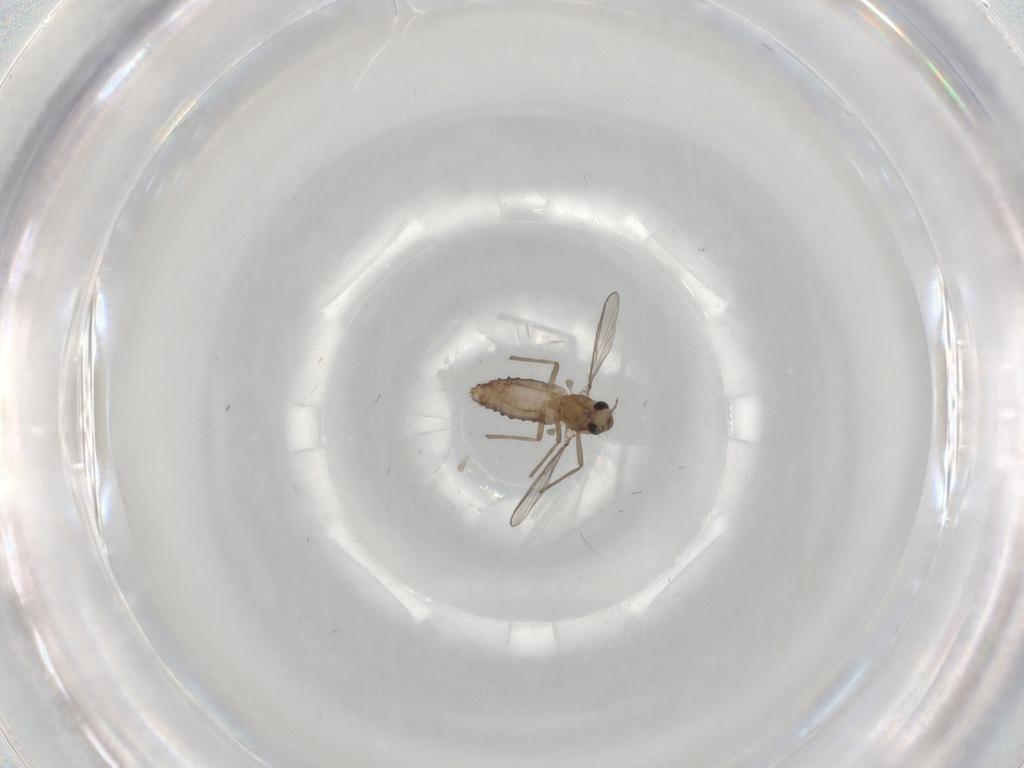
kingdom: Animalia
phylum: Arthropoda
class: Insecta
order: Diptera
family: Chironomidae
